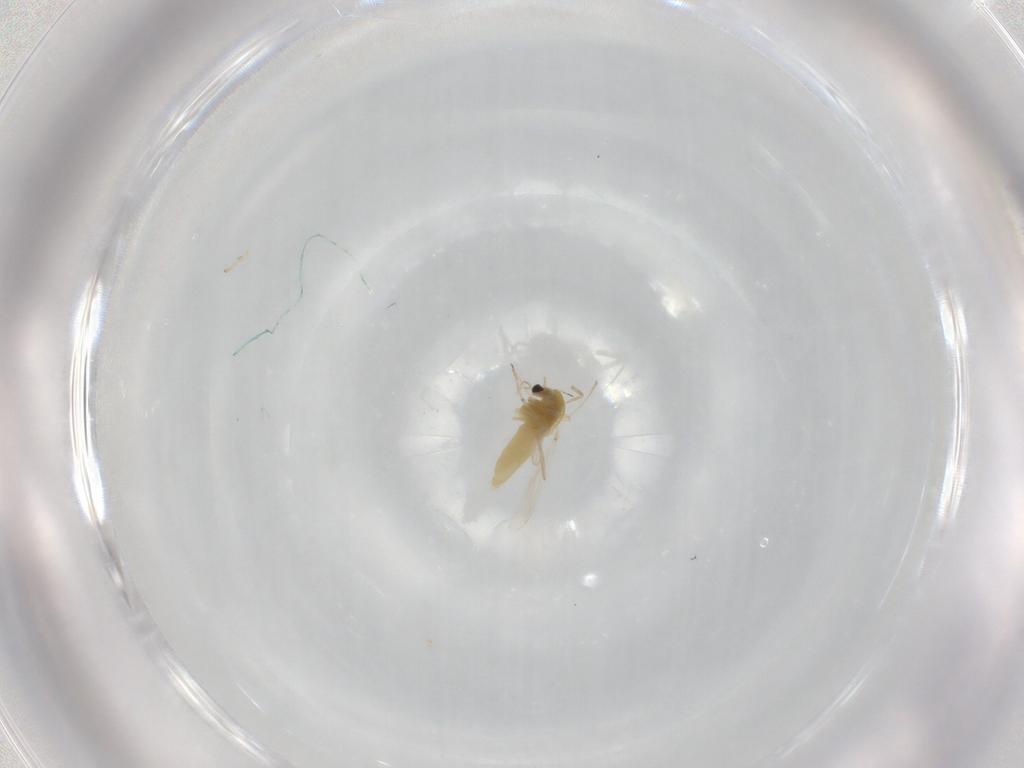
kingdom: Animalia
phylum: Arthropoda
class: Insecta
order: Diptera
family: Chironomidae
